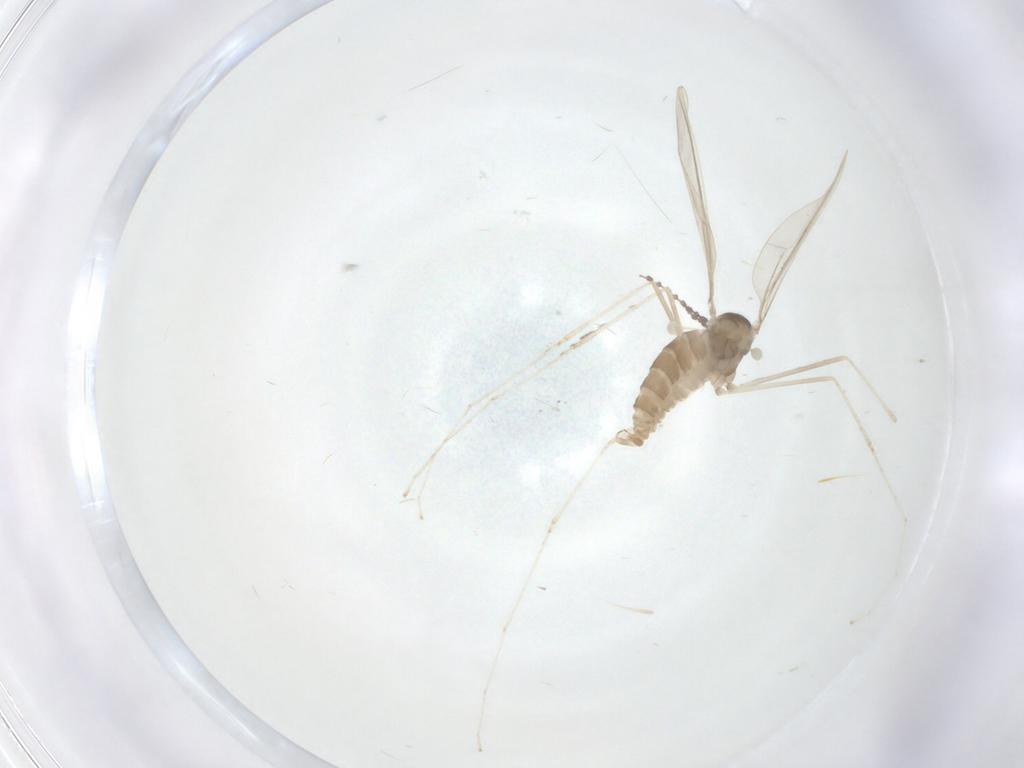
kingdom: Animalia
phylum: Arthropoda
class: Insecta
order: Diptera
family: Cecidomyiidae
